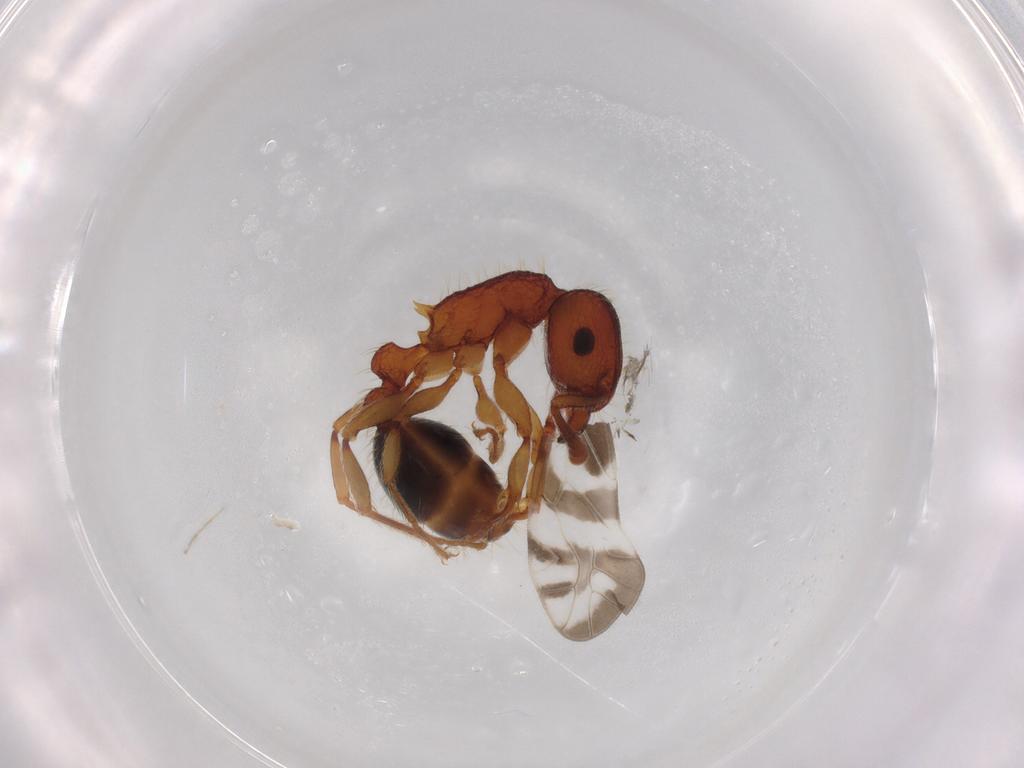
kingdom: Animalia
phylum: Arthropoda
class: Insecta
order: Hymenoptera
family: Formicidae
